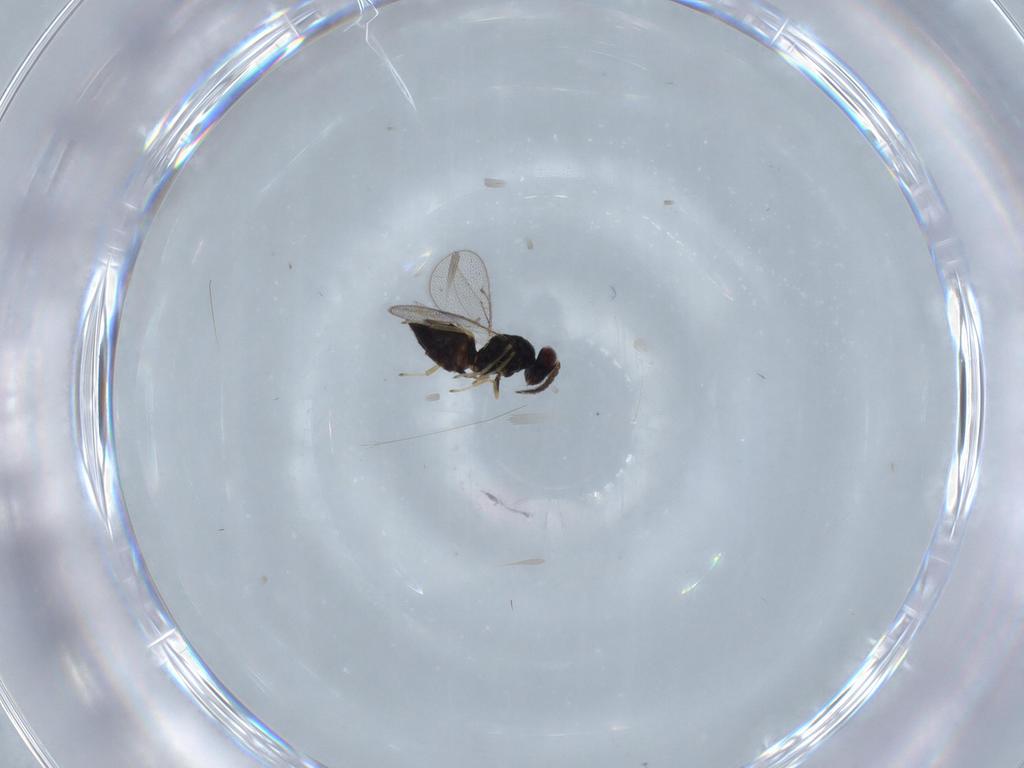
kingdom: Animalia
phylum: Arthropoda
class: Insecta
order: Hymenoptera
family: Eulophidae
